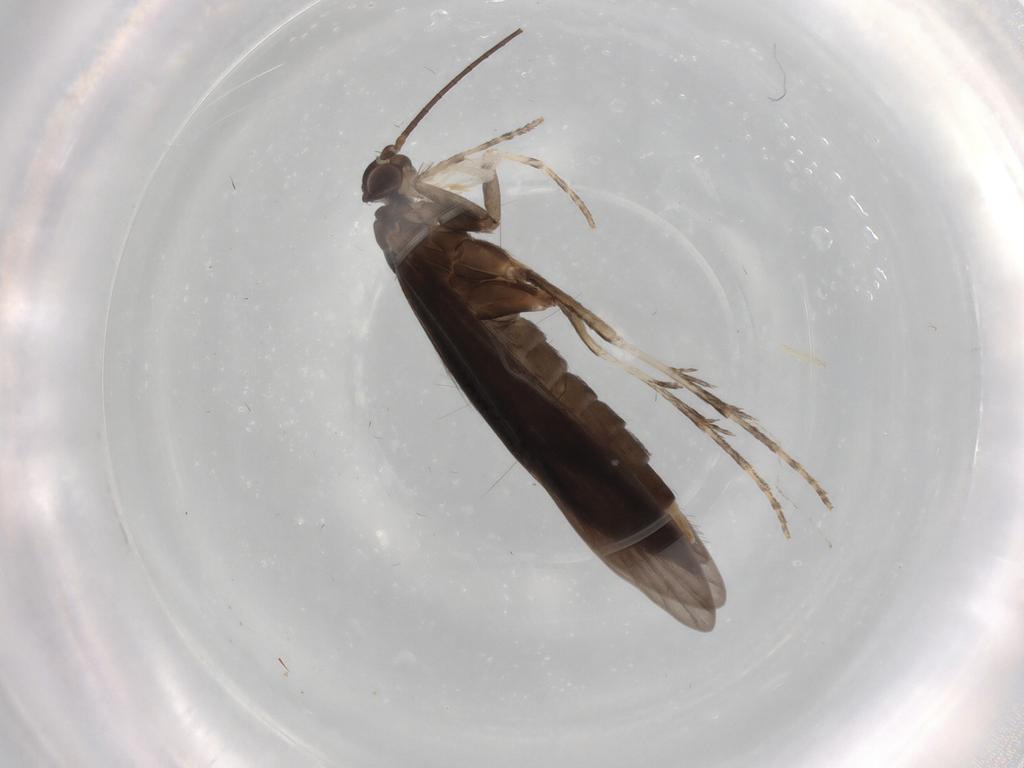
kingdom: Animalia
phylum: Arthropoda
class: Insecta
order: Trichoptera
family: Xiphocentronidae
